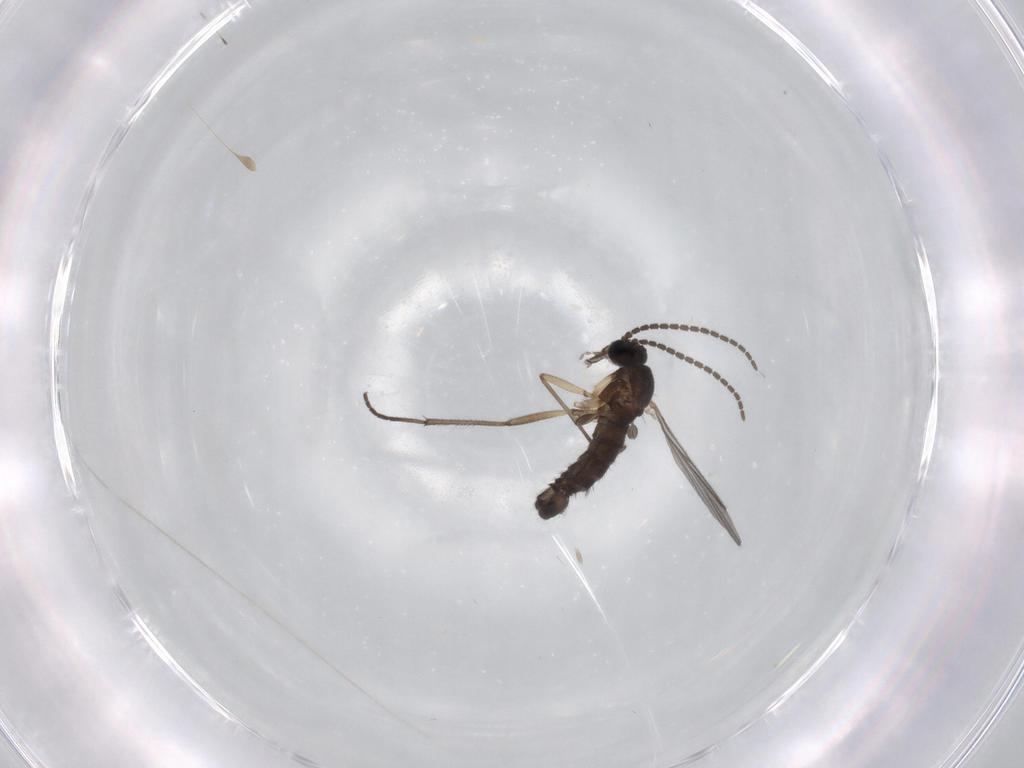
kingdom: Animalia
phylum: Arthropoda
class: Insecta
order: Diptera
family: Sciaridae
